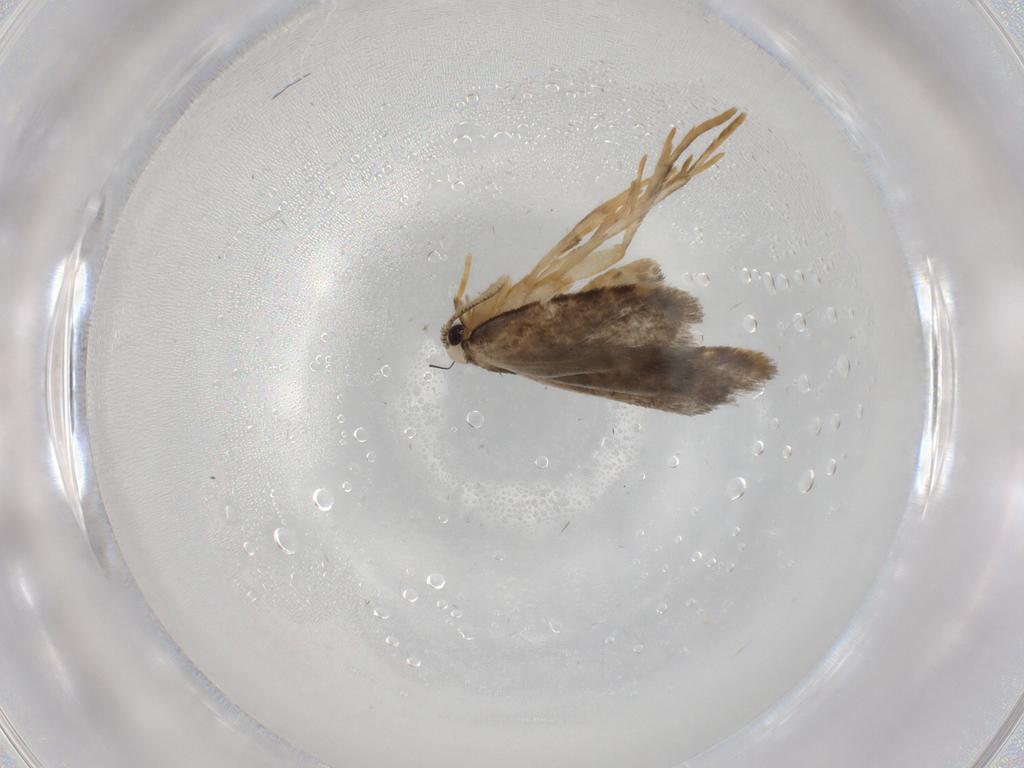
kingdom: Animalia
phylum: Arthropoda
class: Insecta
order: Lepidoptera
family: Psychidae
